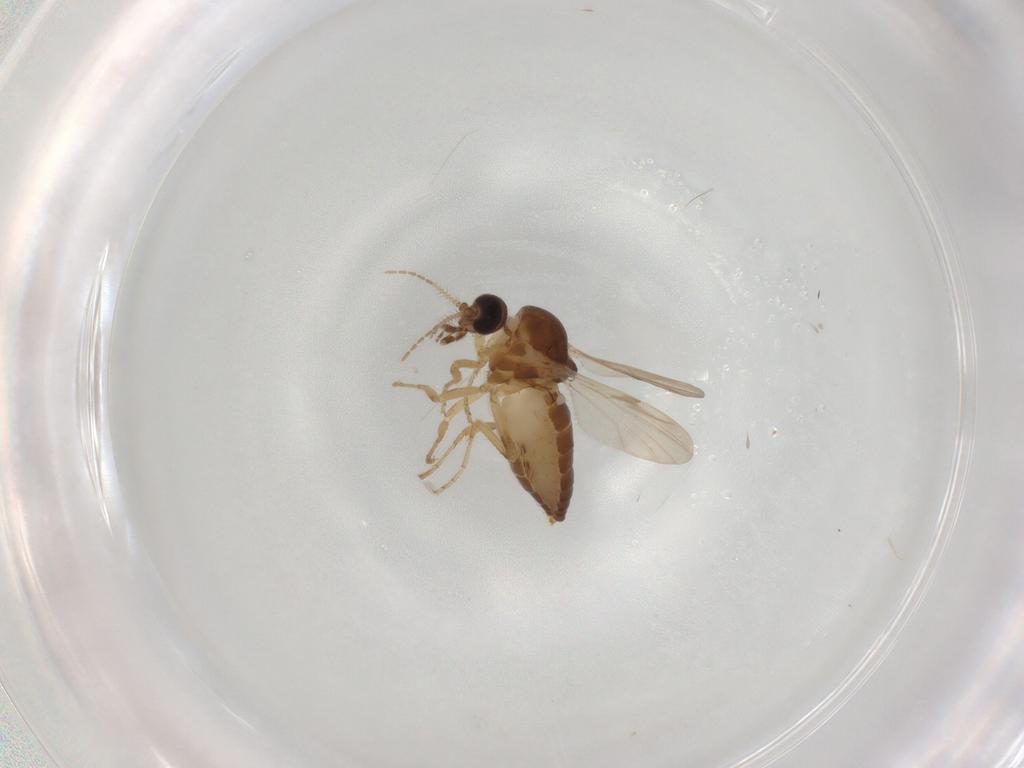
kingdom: Animalia
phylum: Arthropoda
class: Insecta
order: Diptera
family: Ceratopogonidae
